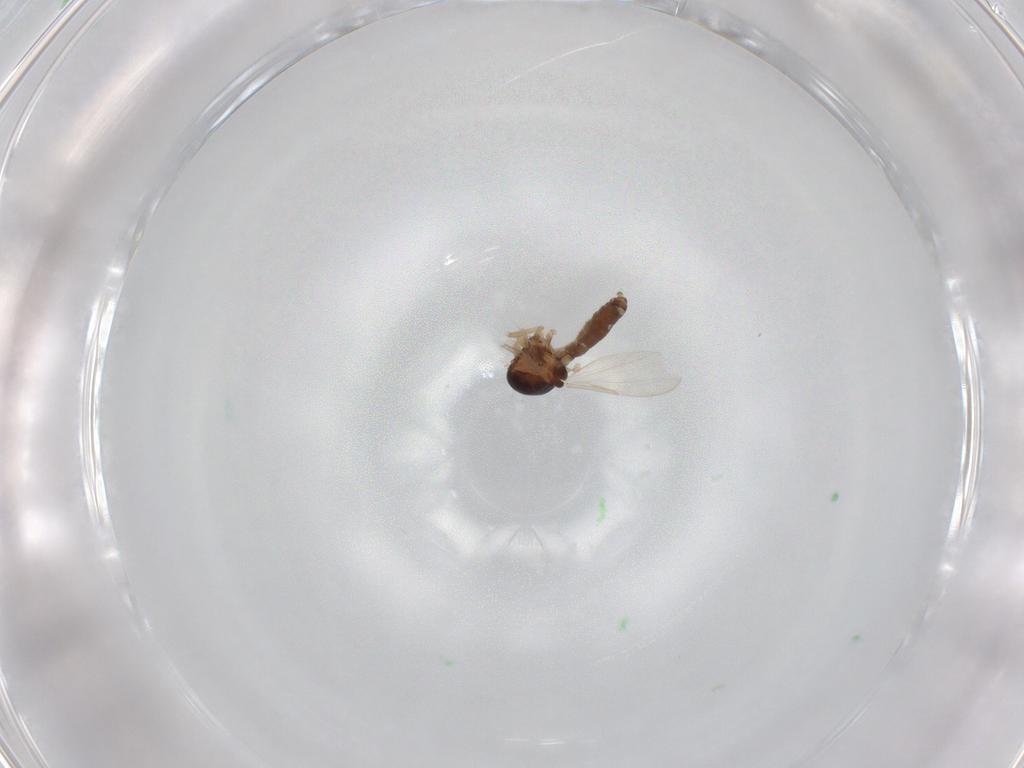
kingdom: Animalia
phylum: Arthropoda
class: Insecta
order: Diptera
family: Ceratopogonidae
